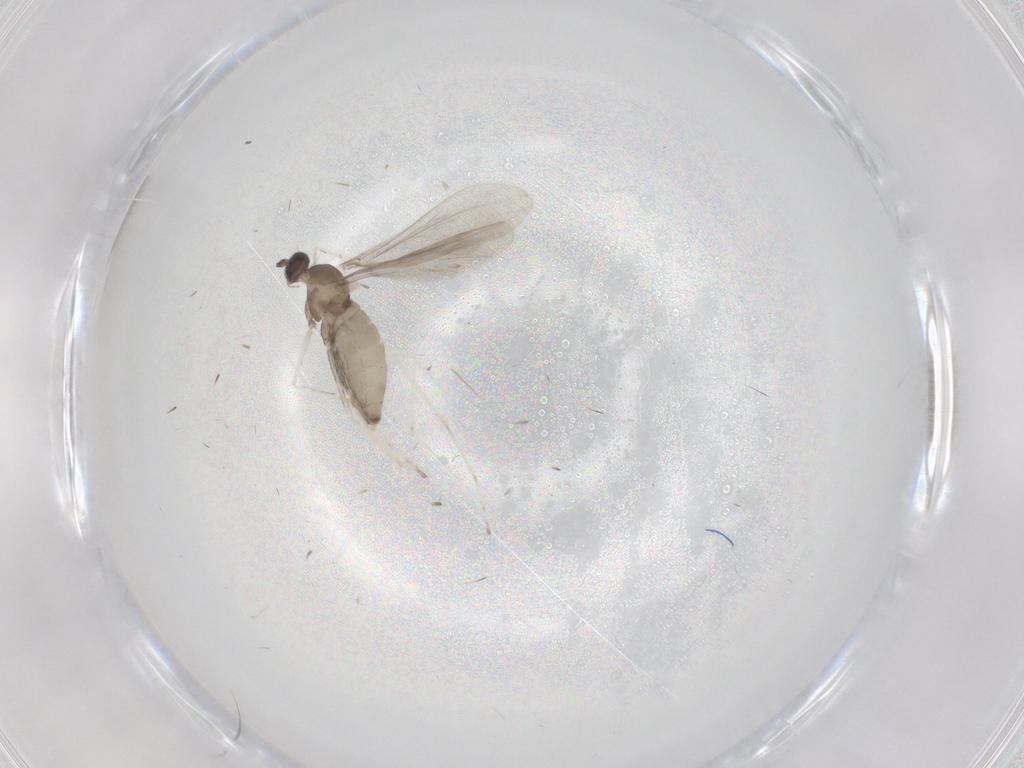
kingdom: Animalia
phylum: Arthropoda
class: Insecta
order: Diptera
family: Cecidomyiidae
